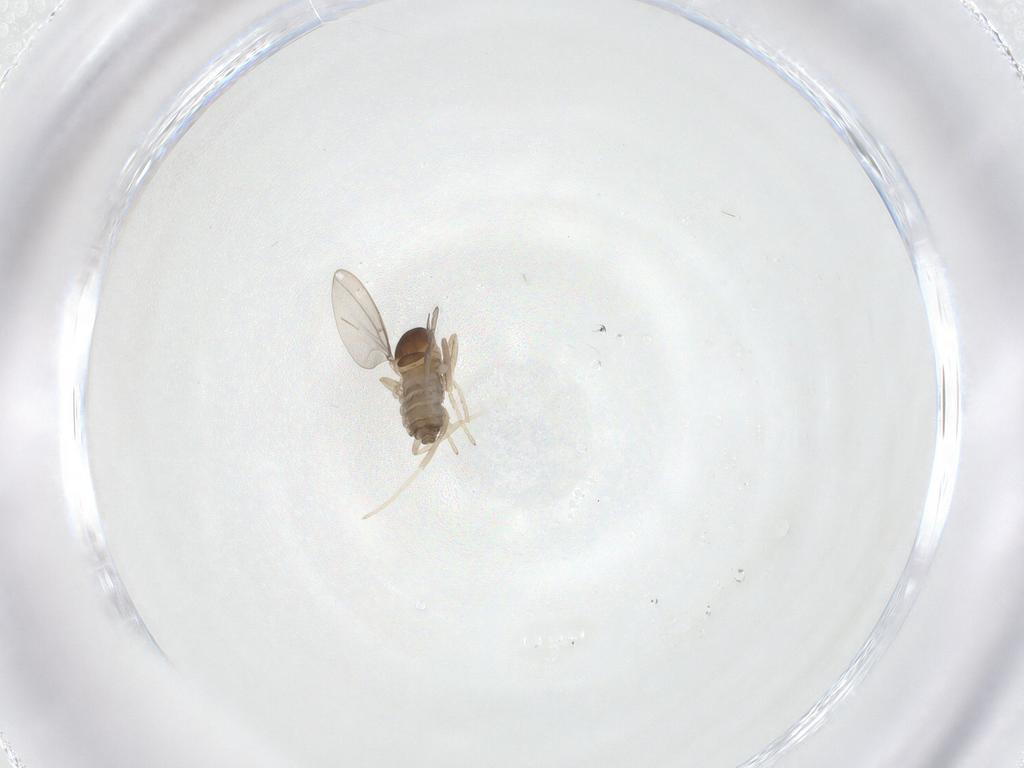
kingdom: Animalia
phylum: Arthropoda
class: Insecta
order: Diptera
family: Cecidomyiidae
